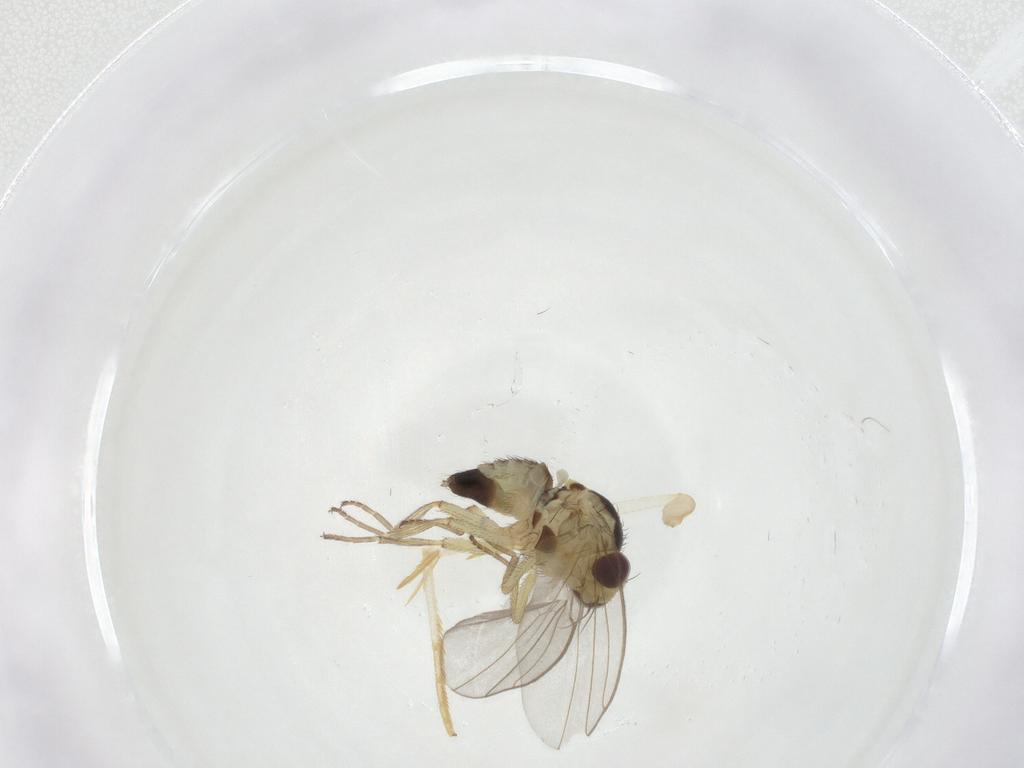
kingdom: Animalia
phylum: Arthropoda
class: Insecta
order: Diptera
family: Agromyzidae
